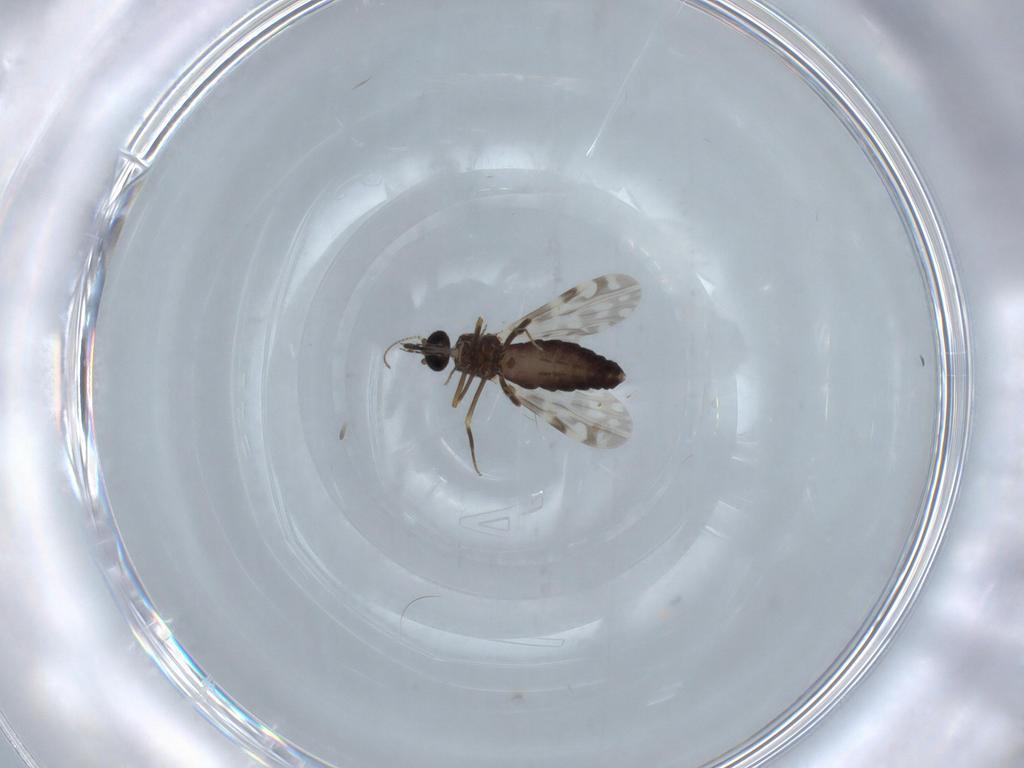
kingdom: Animalia
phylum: Arthropoda
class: Insecta
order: Diptera
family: Ceratopogonidae
